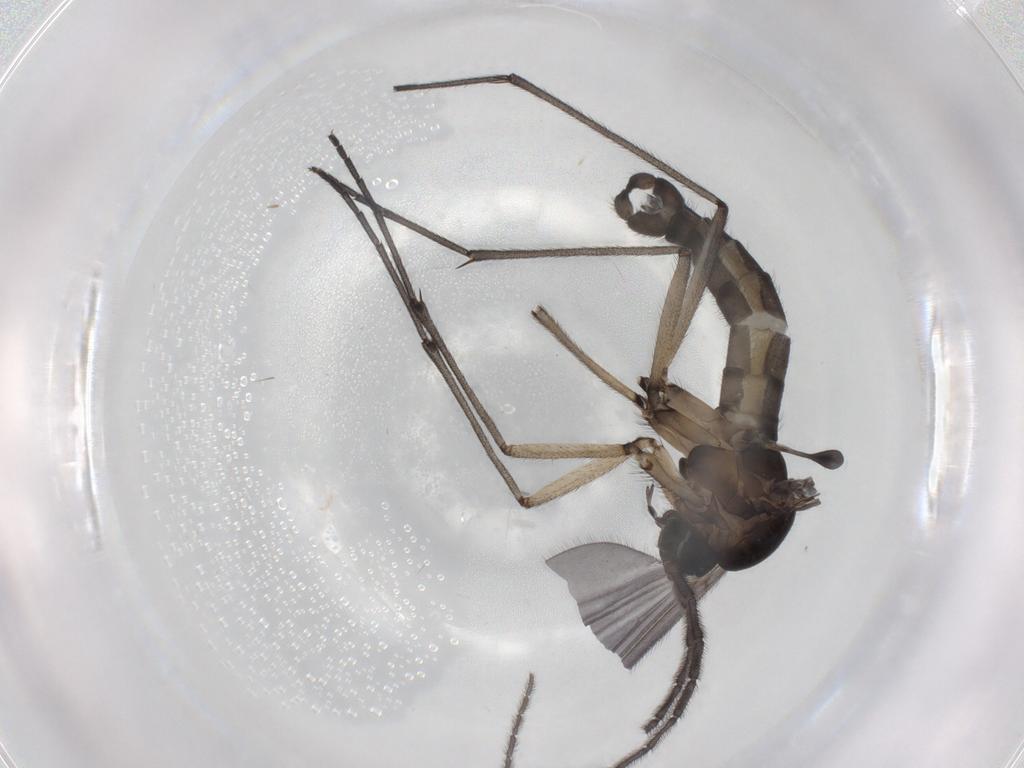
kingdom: Animalia
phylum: Arthropoda
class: Insecta
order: Diptera
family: Sciaridae
